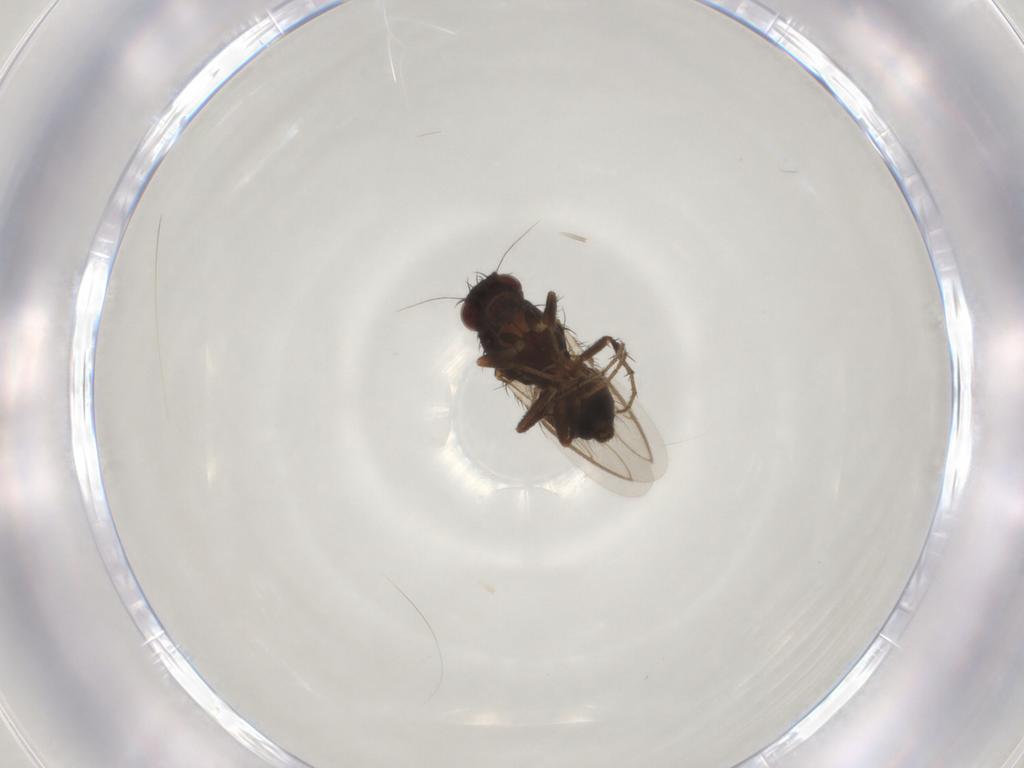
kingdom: Animalia
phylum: Arthropoda
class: Insecta
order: Diptera
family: Sphaeroceridae
